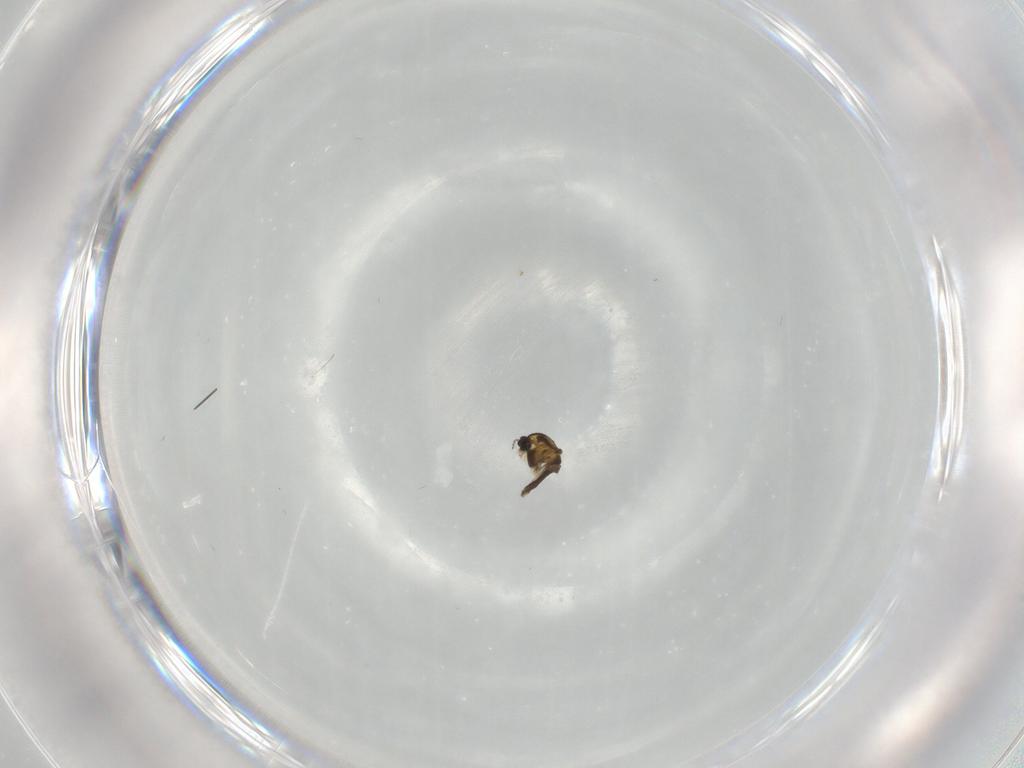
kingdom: Animalia
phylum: Arthropoda
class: Insecta
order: Diptera
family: Chironomidae
